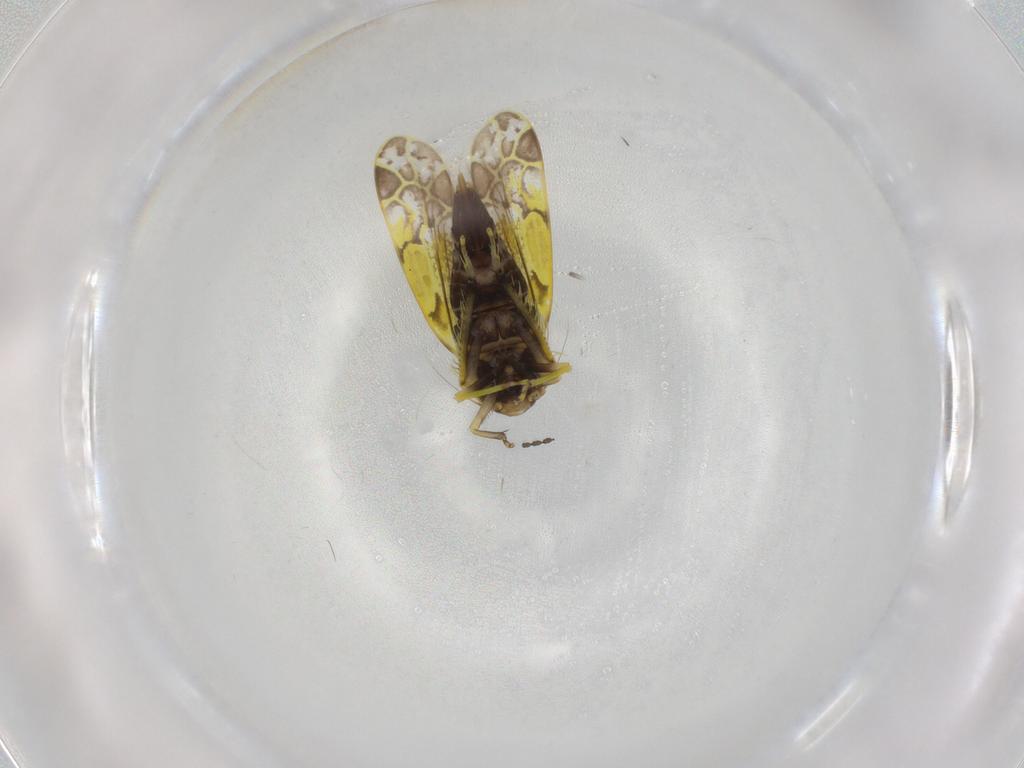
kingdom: Animalia
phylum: Arthropoda
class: Insecta
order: Hemiptera
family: Cicadellidae
